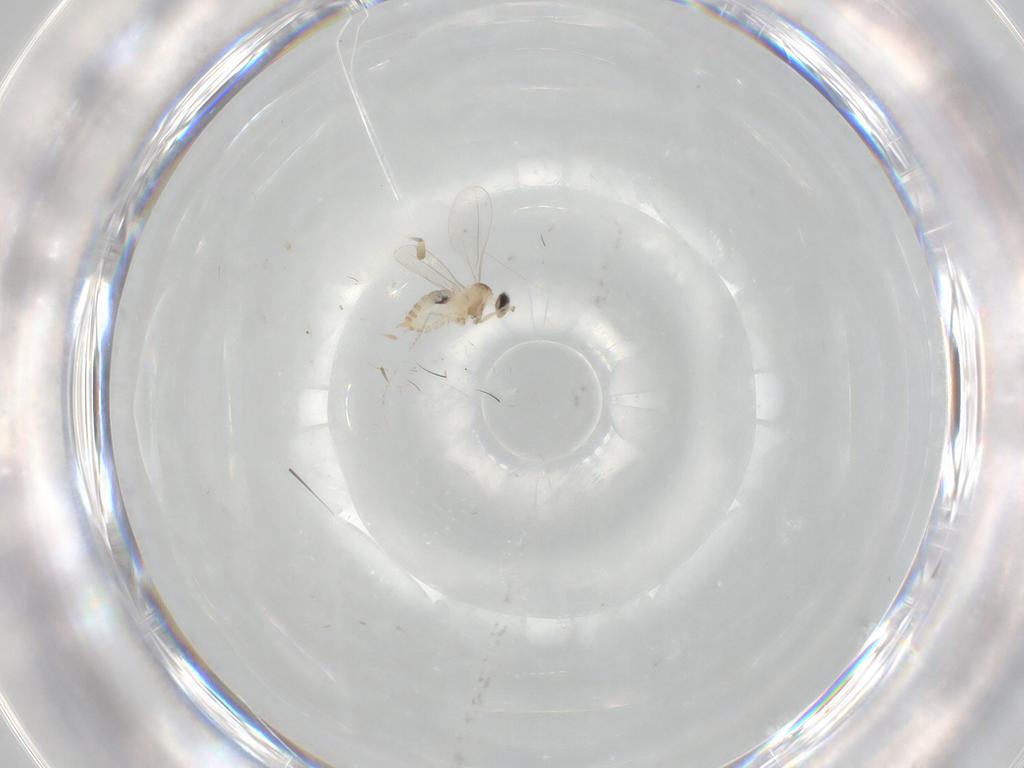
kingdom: Animalia
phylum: Arthropoda
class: Insecta
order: Diptera
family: Cecidomyiidae
